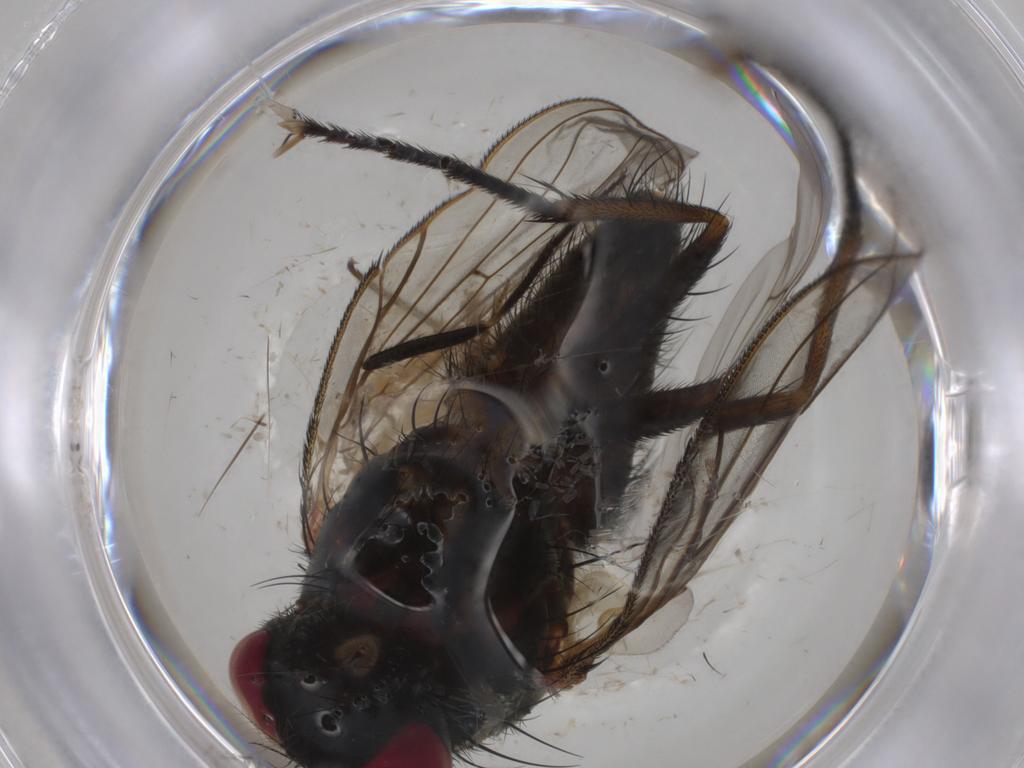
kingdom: Animalia
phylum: Arthropoda
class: Insecta
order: Diptera
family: Muscidae
